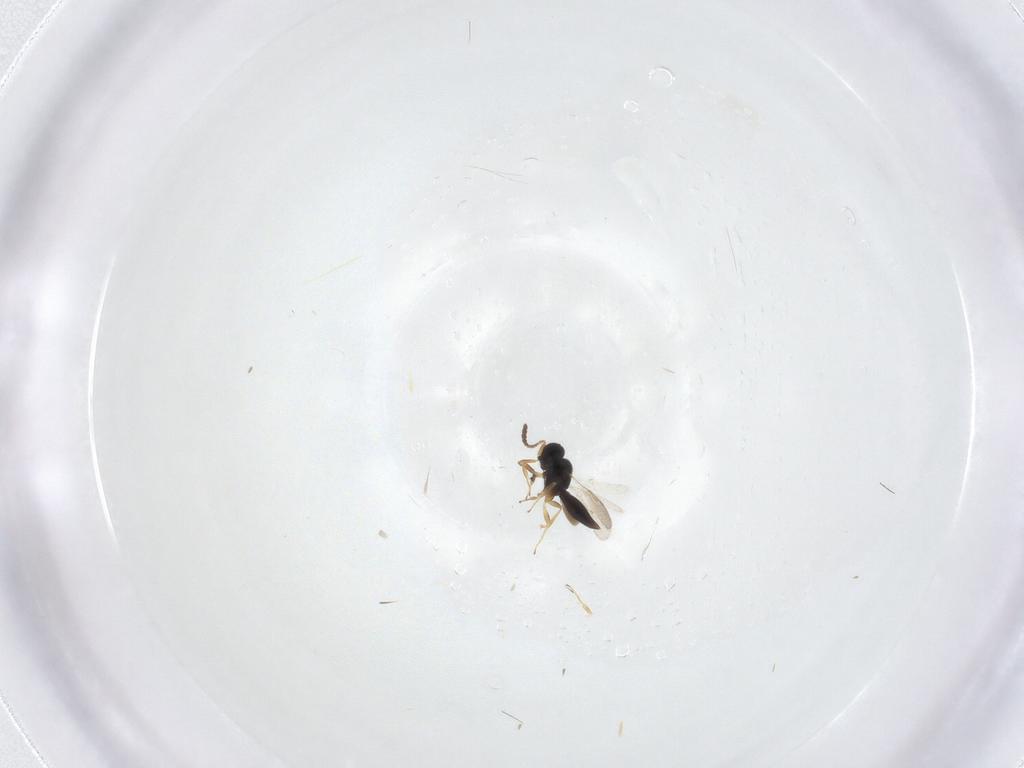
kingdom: Animalia
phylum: Arthropoda
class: Insecta
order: Hymenoptera
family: Scelionidae
